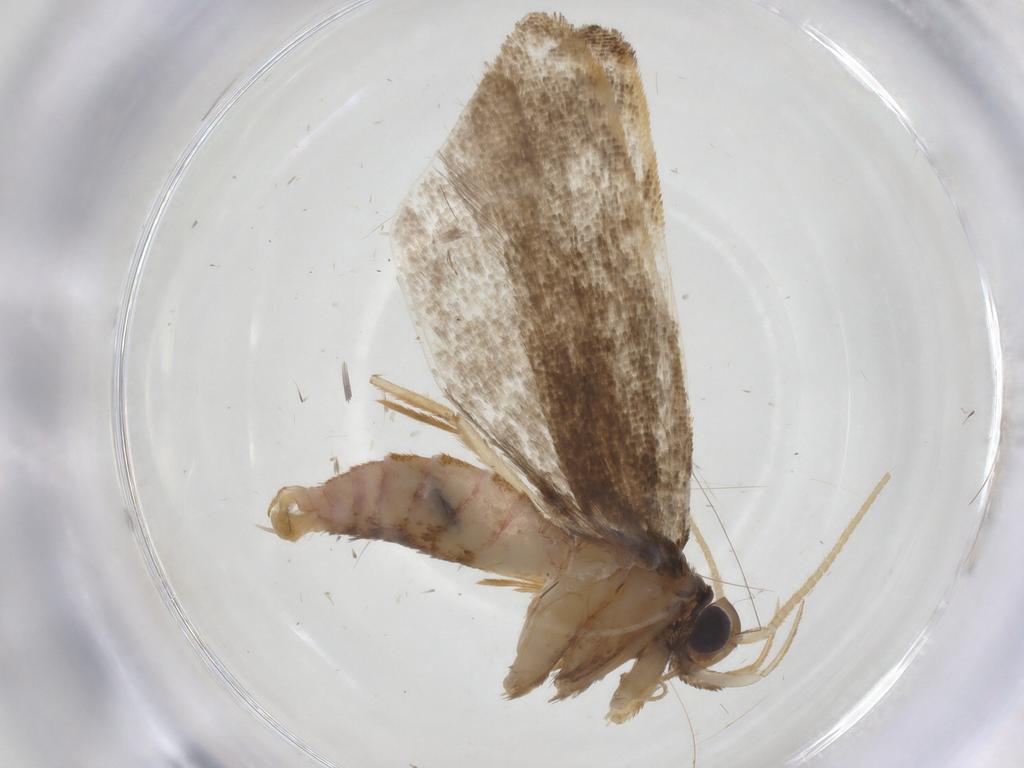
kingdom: Animalia
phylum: Arthropoda
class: Insecta
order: Lepidoptera
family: Lecithoceridae
